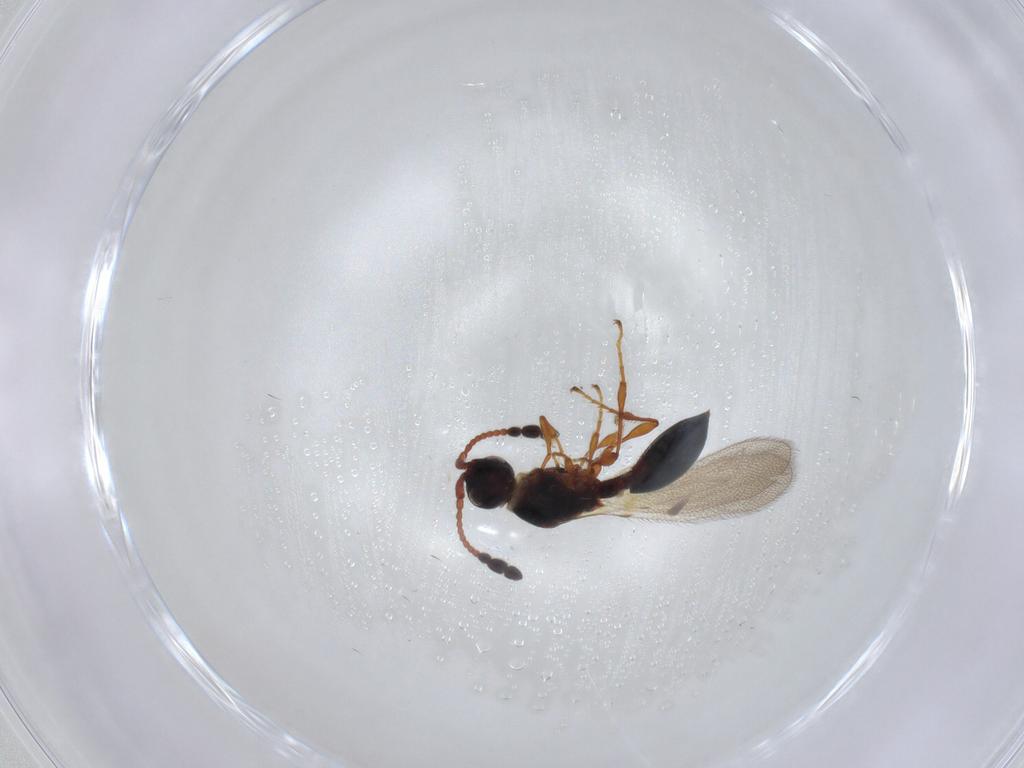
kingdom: Animalia
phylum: Arthropoda
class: Insecta
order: Hymenoptera
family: Diapriidae
